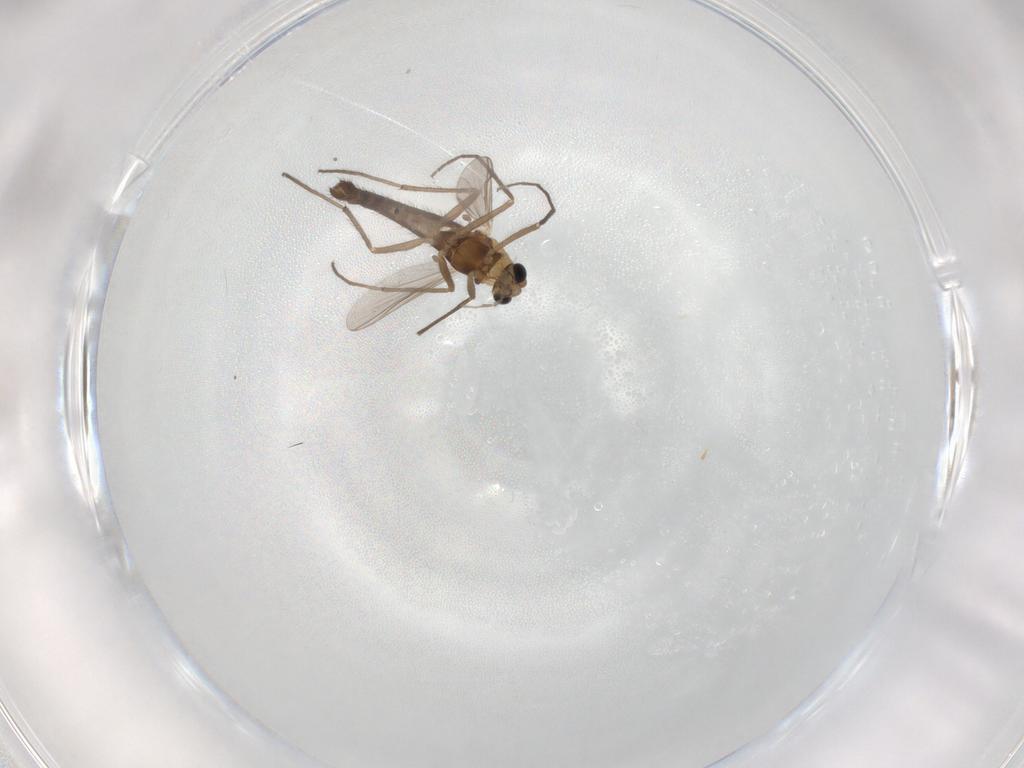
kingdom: Animalia
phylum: Arthropoda
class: Insecta
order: Diptera
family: Chironomidae
